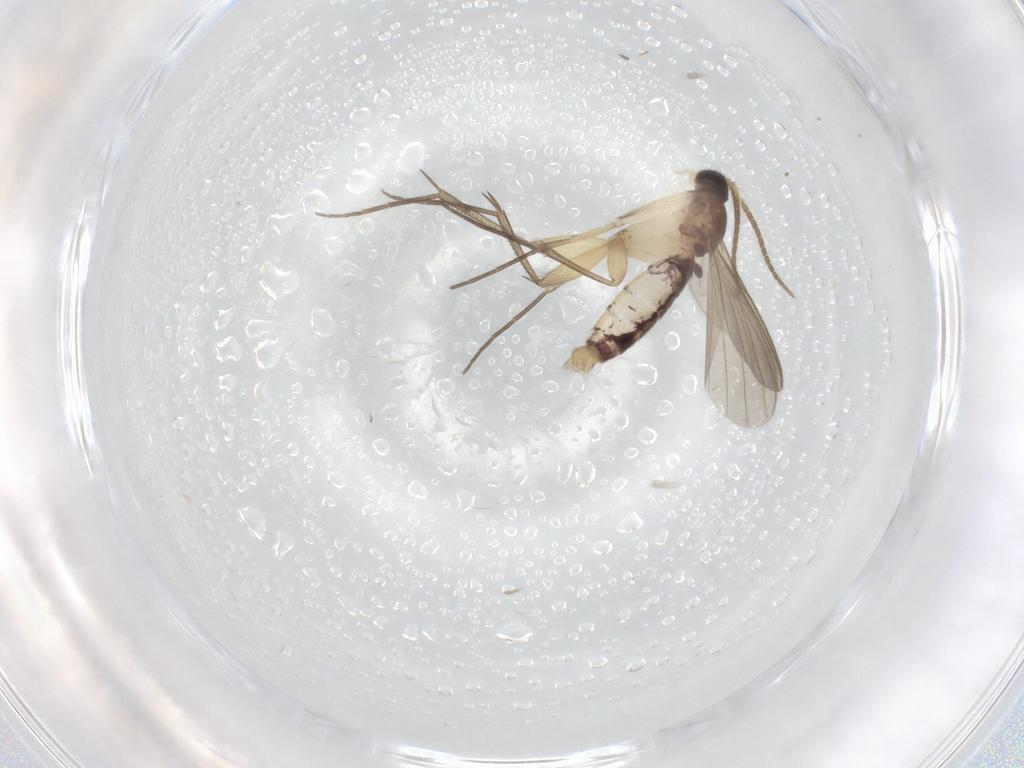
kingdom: Animalia
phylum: Arthropoda
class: Insecta
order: Diptera
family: Mycetophilidae
